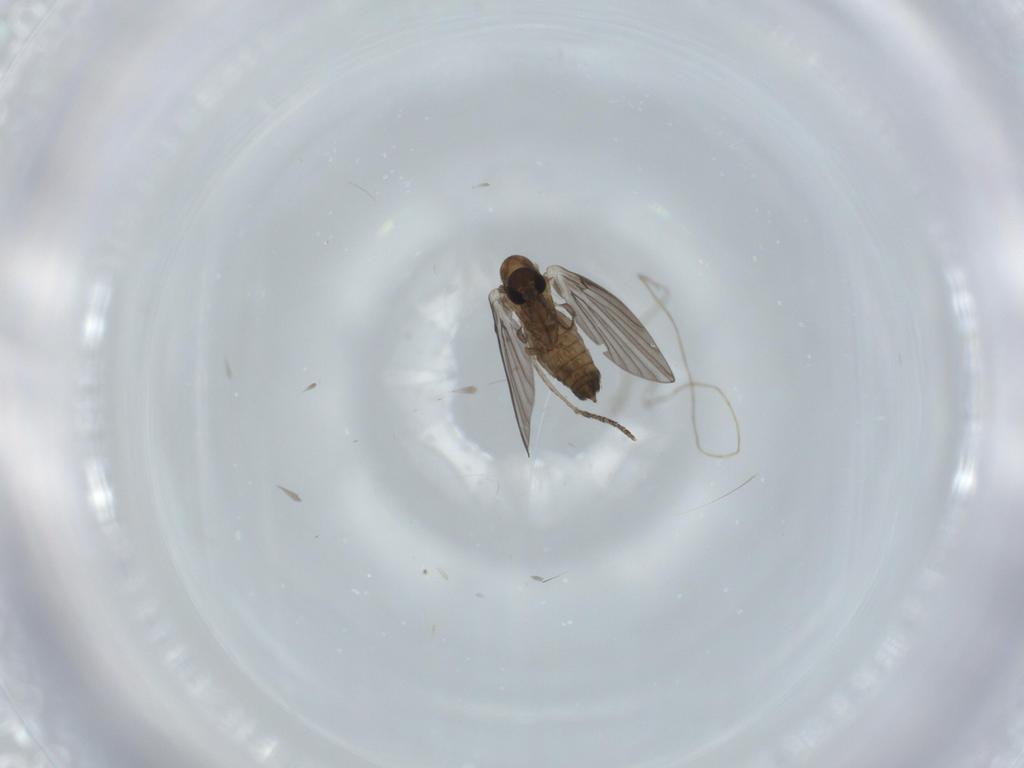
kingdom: Animalia
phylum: Arthropoda
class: Insecta
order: Diptera
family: Psychodidae
